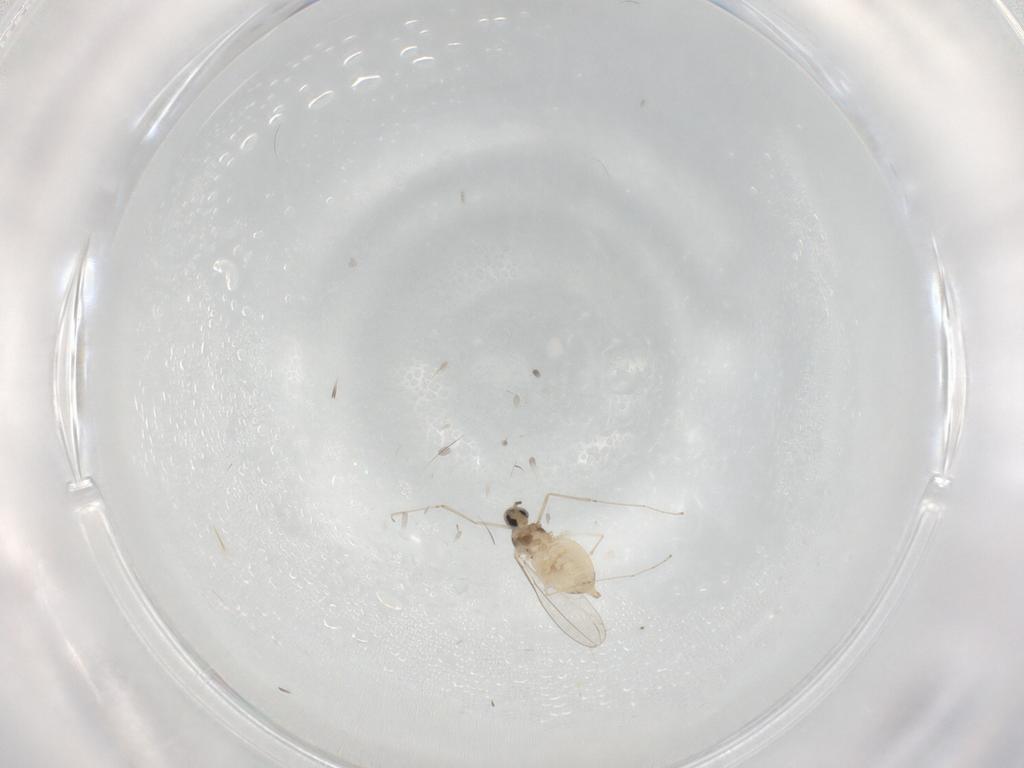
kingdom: Animalia
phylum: Arthropoda
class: Insecta
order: Diptera
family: Cecidomyiidae
